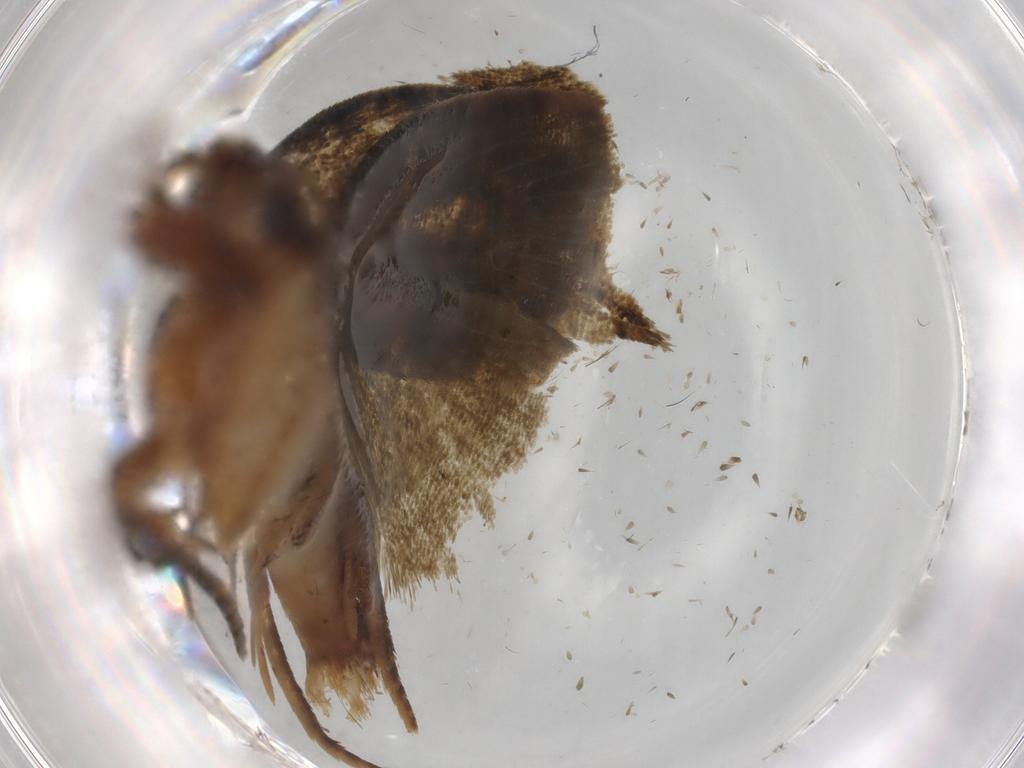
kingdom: Animalia
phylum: Arthropoda
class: Insecta
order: Lepidoptera
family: Geometridae
